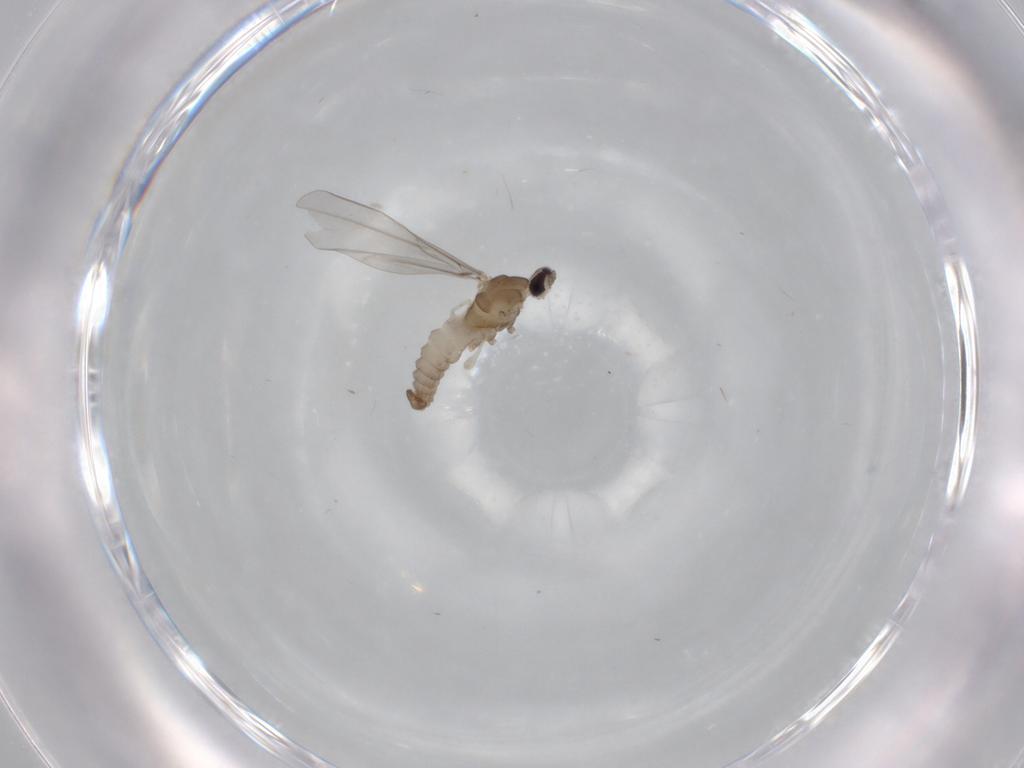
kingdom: Animalia
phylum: Arthropoda
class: Insecta
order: Diptera
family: Cecidomyiidae
